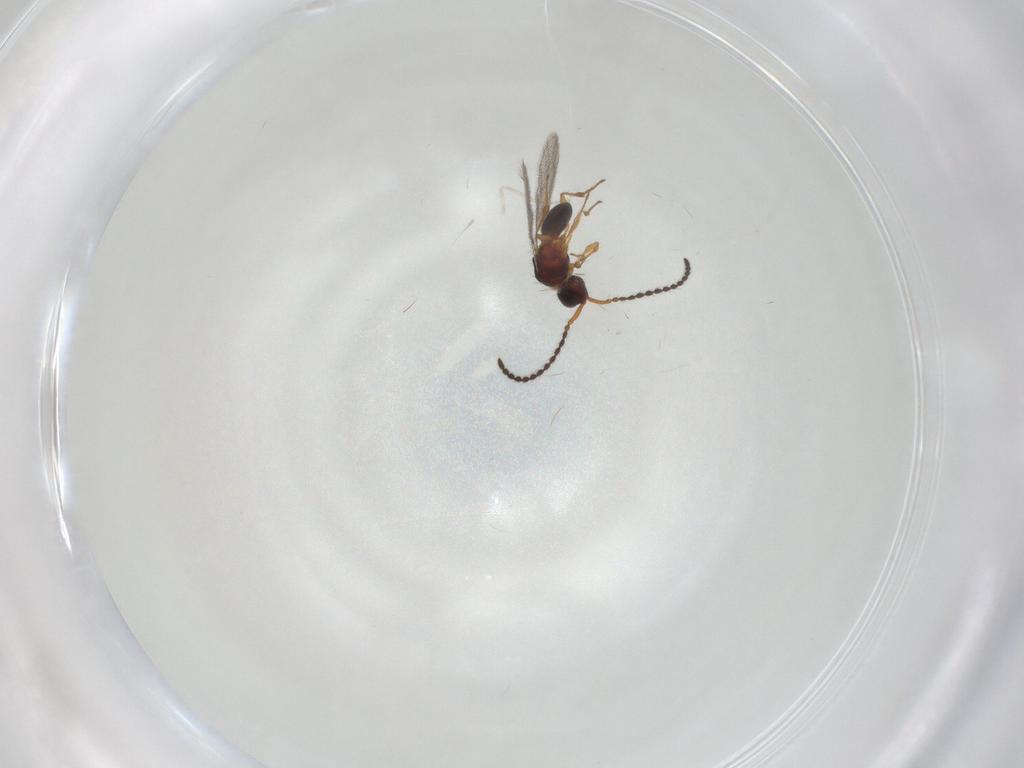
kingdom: Animalia
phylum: Arthropoda
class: Insecta
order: Hymenoptera
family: Diapriidae
